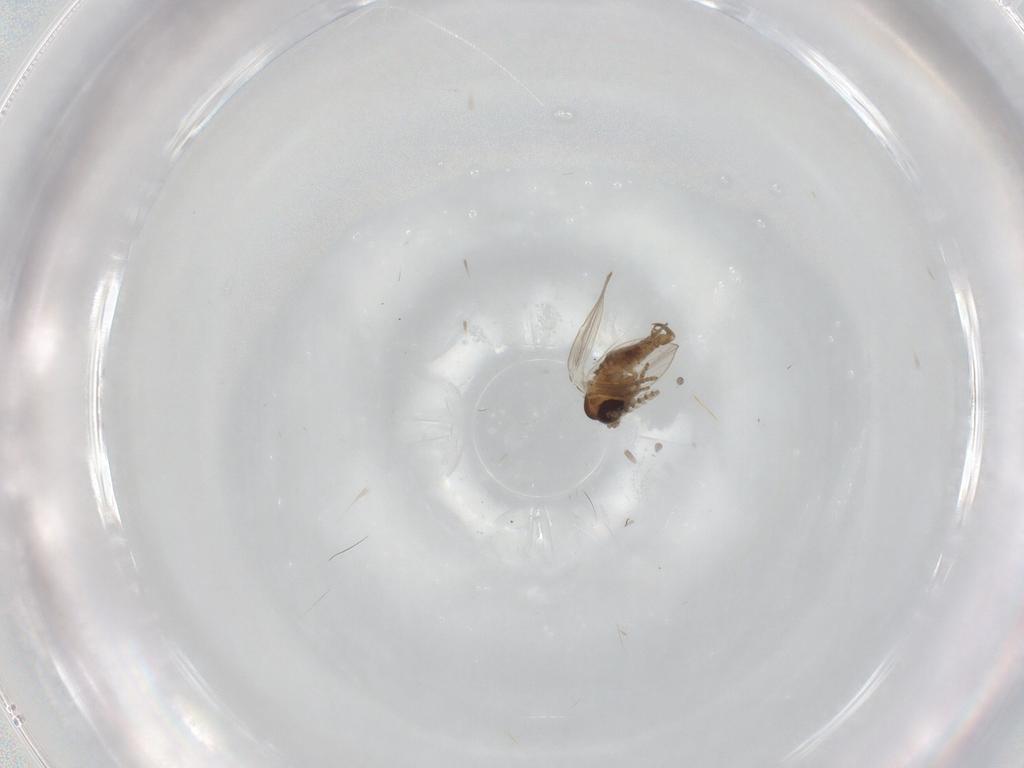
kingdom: Animalia
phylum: Arthropoda
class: Insecta
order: Diptera
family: Psychodidae
